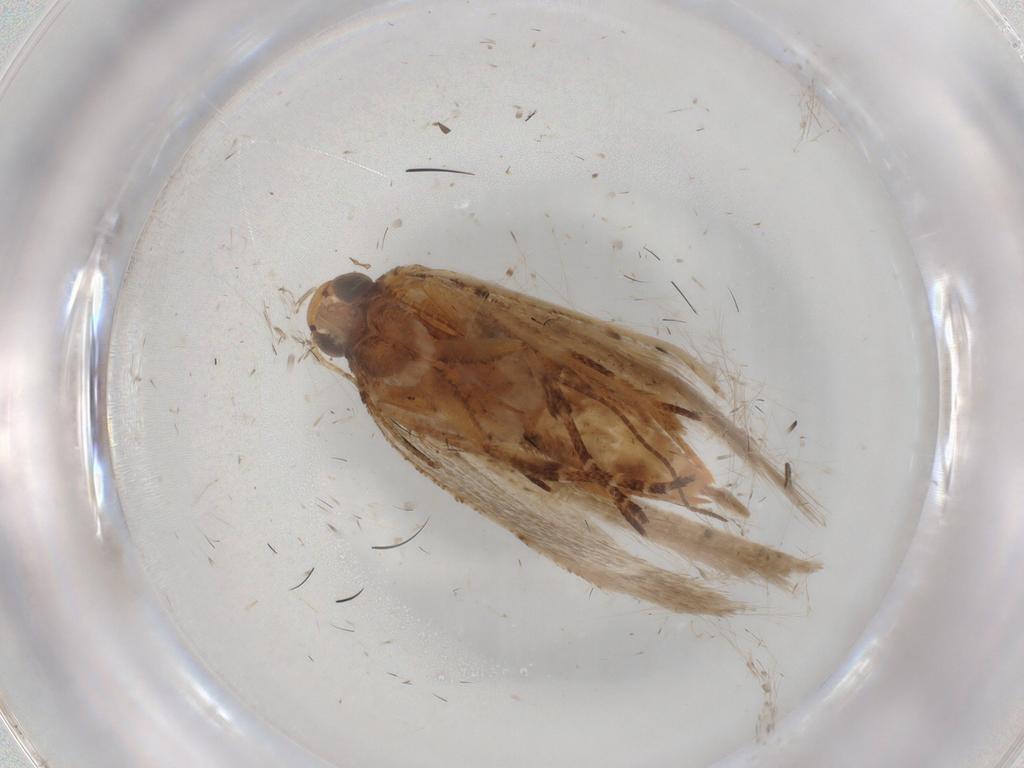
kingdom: Animalia
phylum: Arthropoda
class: Insecta
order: Lepidoptera
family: Gelechiidae
